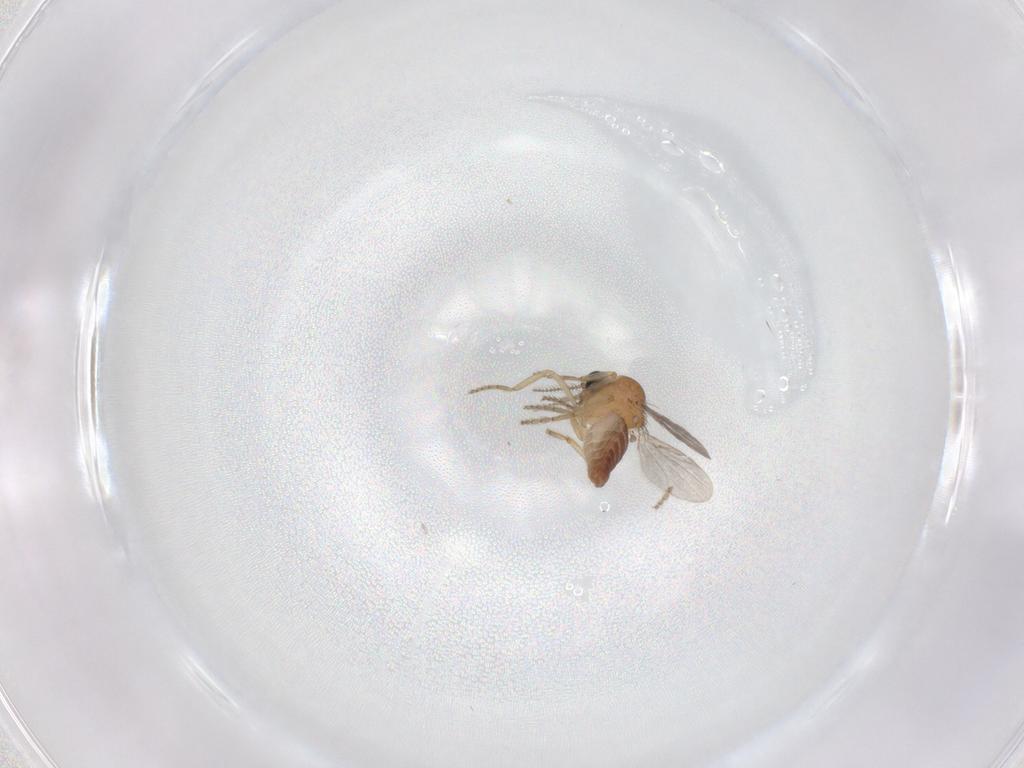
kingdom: Animalia
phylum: Arthropoda
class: Insecta
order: Diptera
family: Ceratopogonidae
